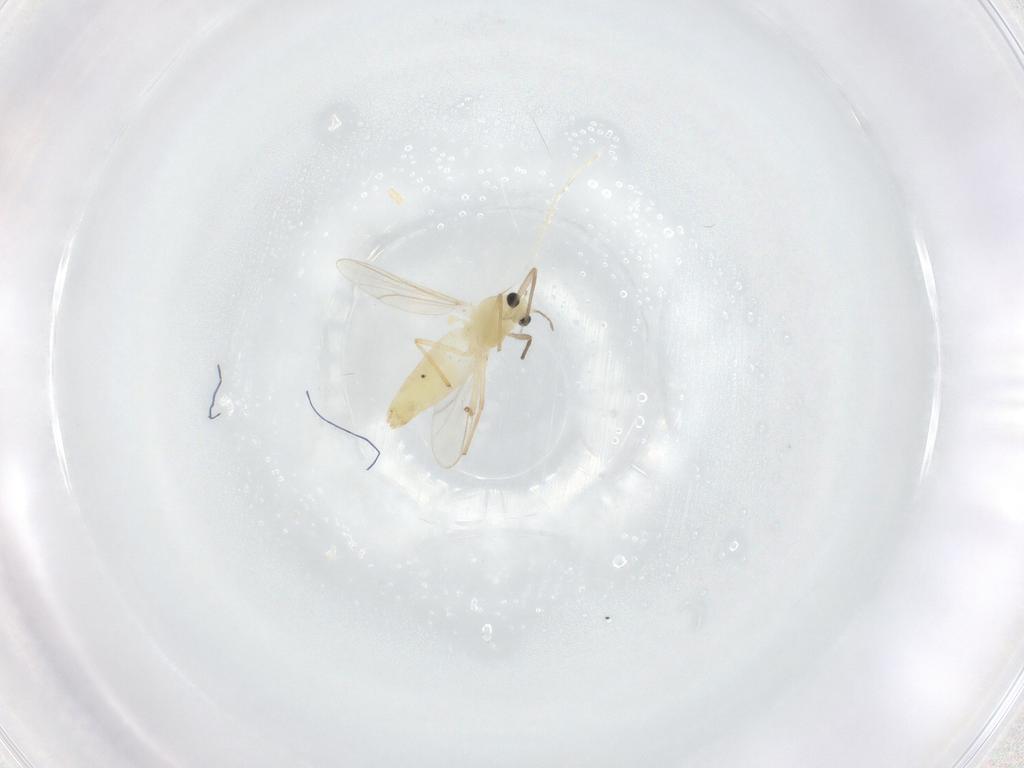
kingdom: Animalia
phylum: Arthropoda
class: Insecta
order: Diptera
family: Chironomidae
